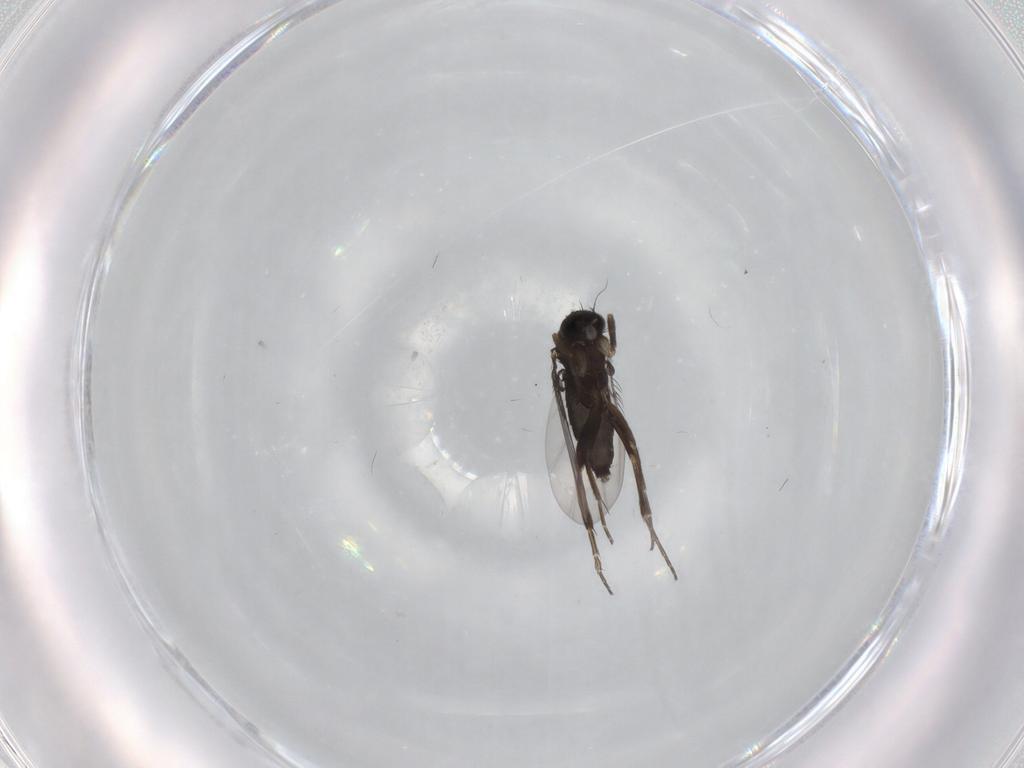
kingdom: Animalia
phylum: Arthropoda
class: Insecta
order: Diptera
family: Phoridae
